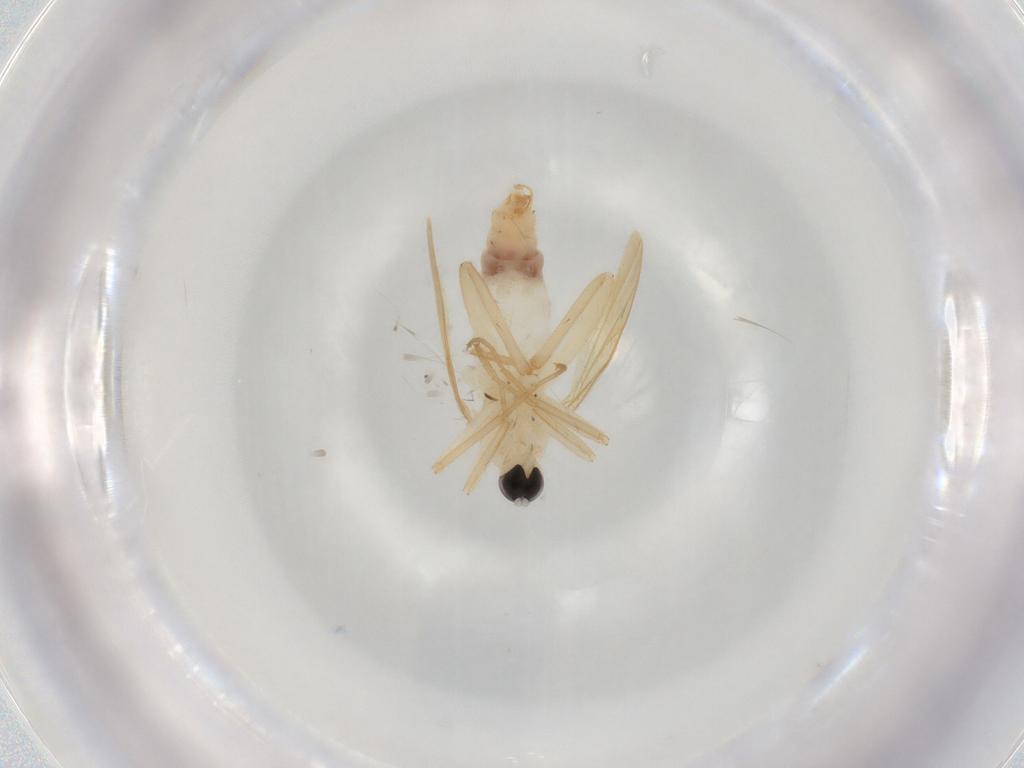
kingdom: Animalia
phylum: Arthropoda
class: Insecta
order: Diptera
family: Hybotidae
